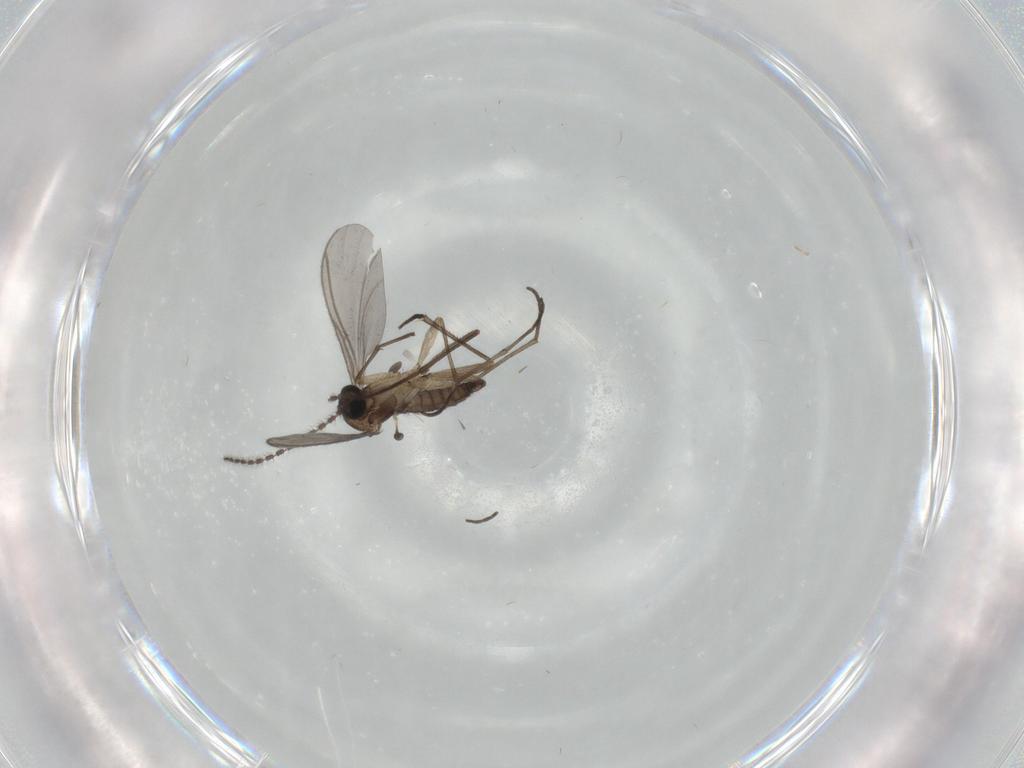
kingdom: Animalia
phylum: Arthropoda
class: Insecta
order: Diptera
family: Sciaridae
